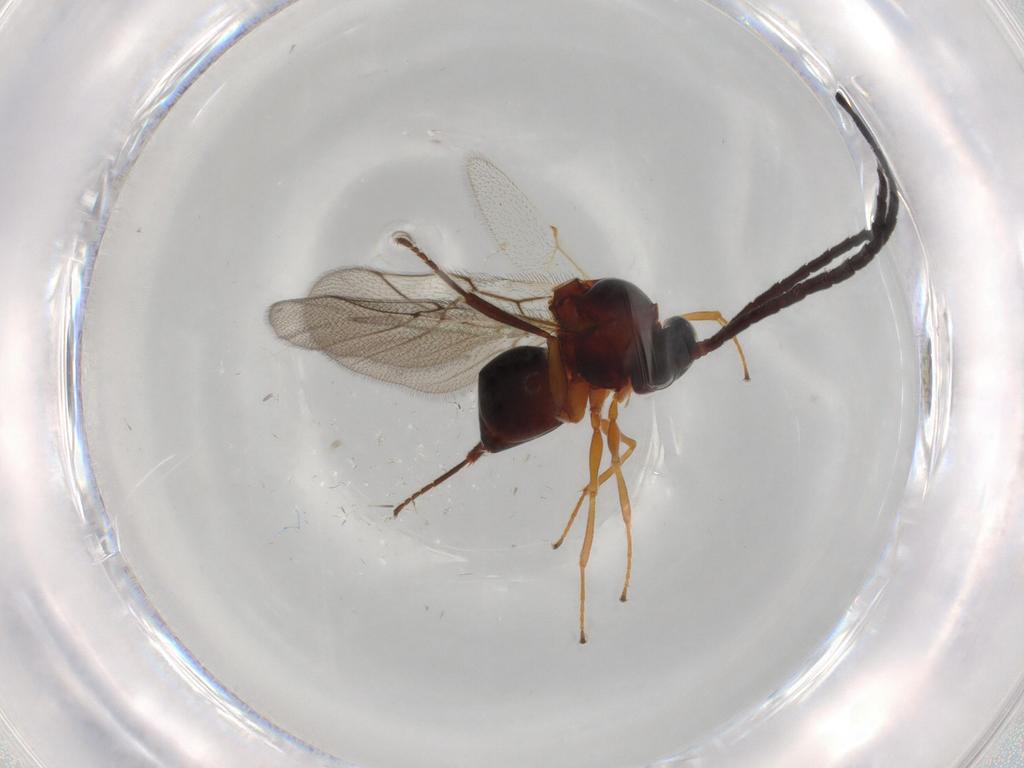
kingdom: Animalia
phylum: Arthropoda
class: Insecta
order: Hymenoptera
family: Figitidae
